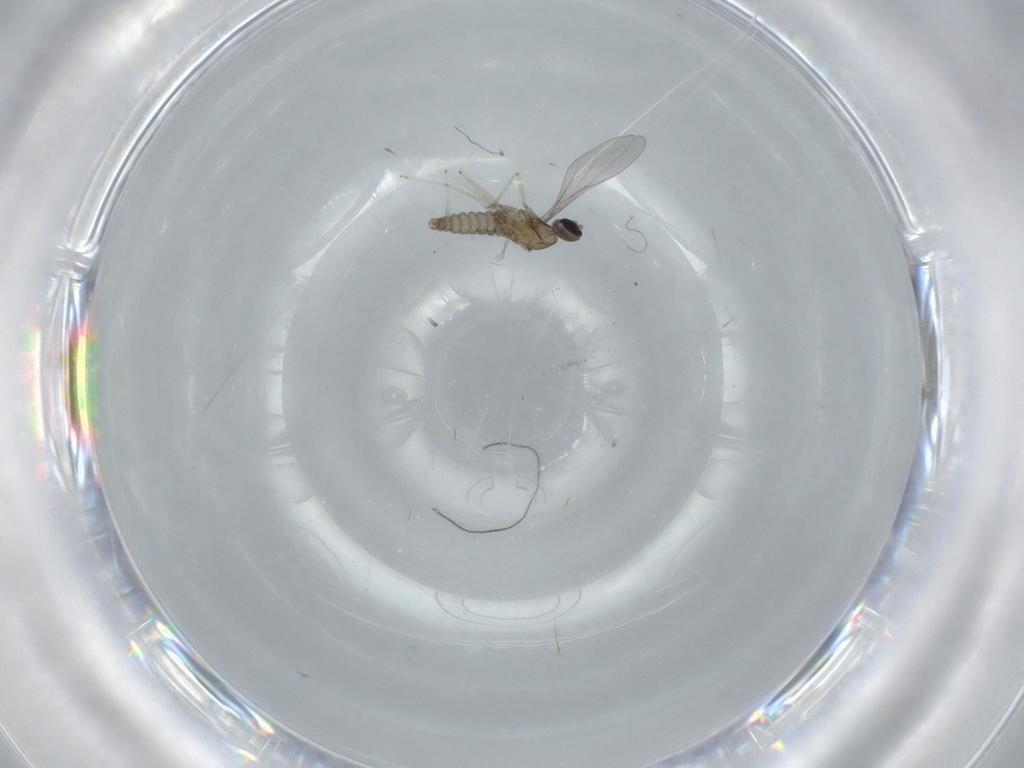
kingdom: Animalia
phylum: Arthropoda
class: Insecta
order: Diptera
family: Cecidomyiidae
